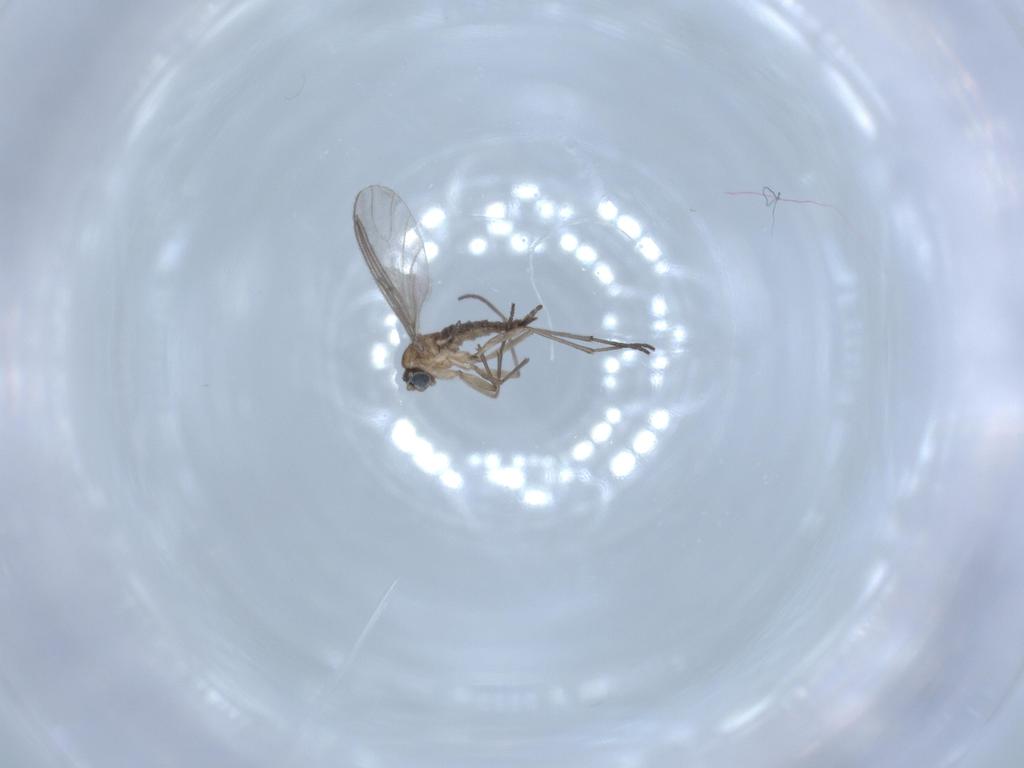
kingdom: Animalia
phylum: Arthropoda
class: Insecta
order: Diptera
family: Sciaridae
